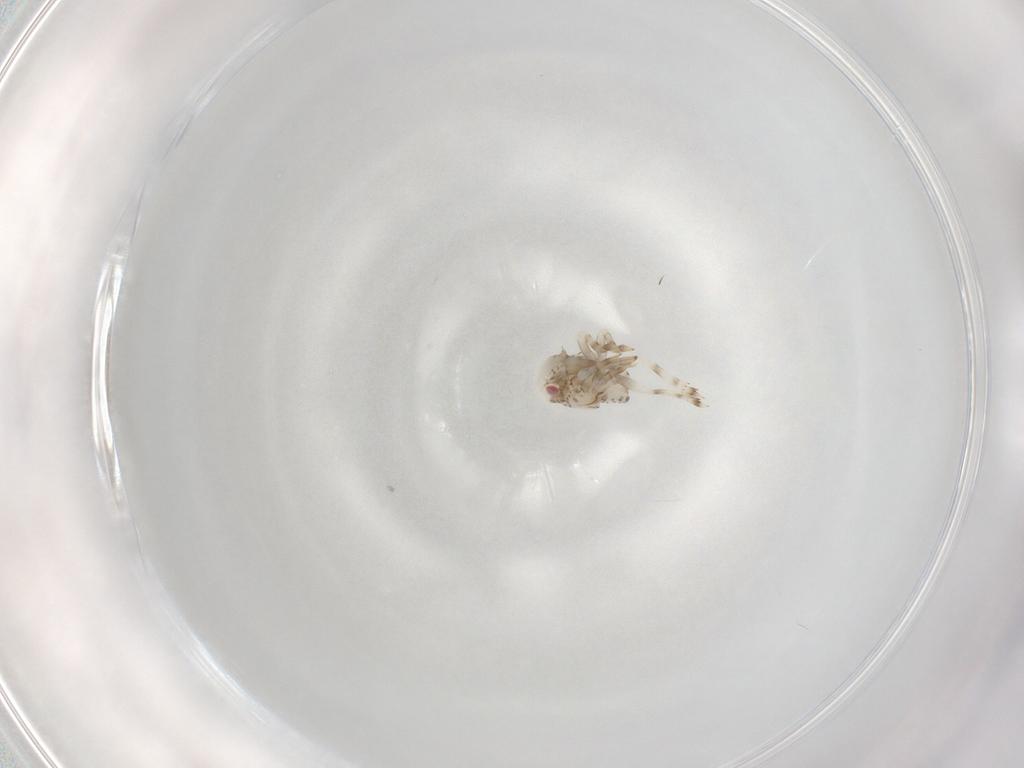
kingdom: Animalia
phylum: Arthropoda
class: Insecta
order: Hemiptera
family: Acanaloniidae
